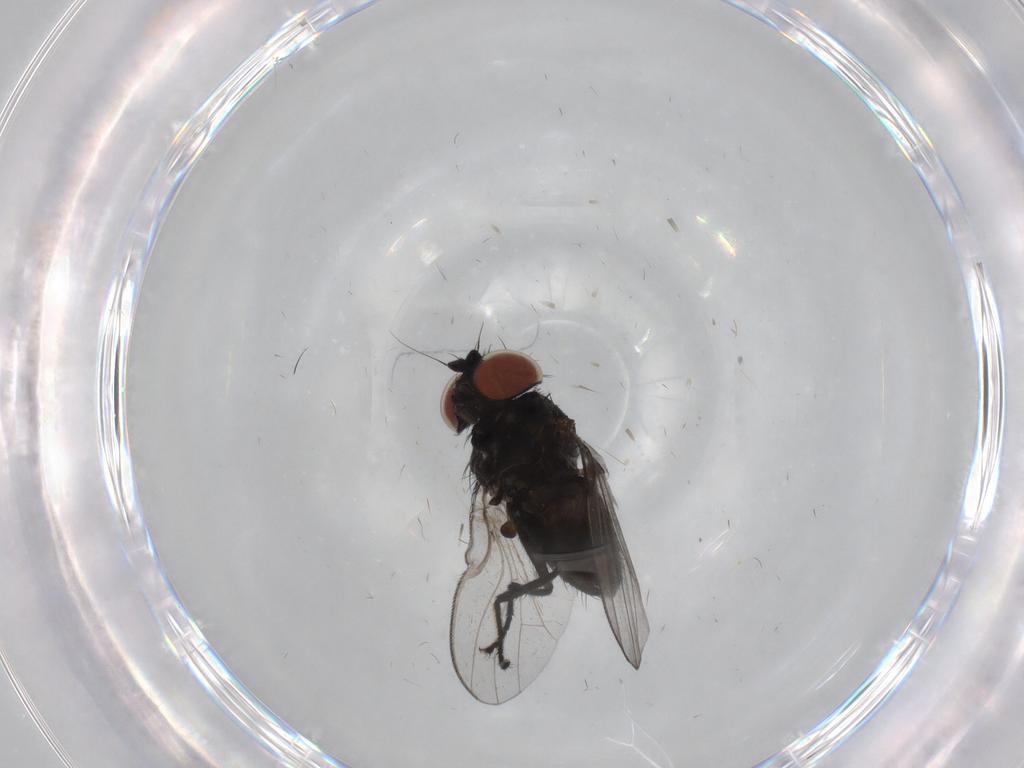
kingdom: Animalia
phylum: Arthropoda
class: Insecta
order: Diptera
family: Milichiidae
